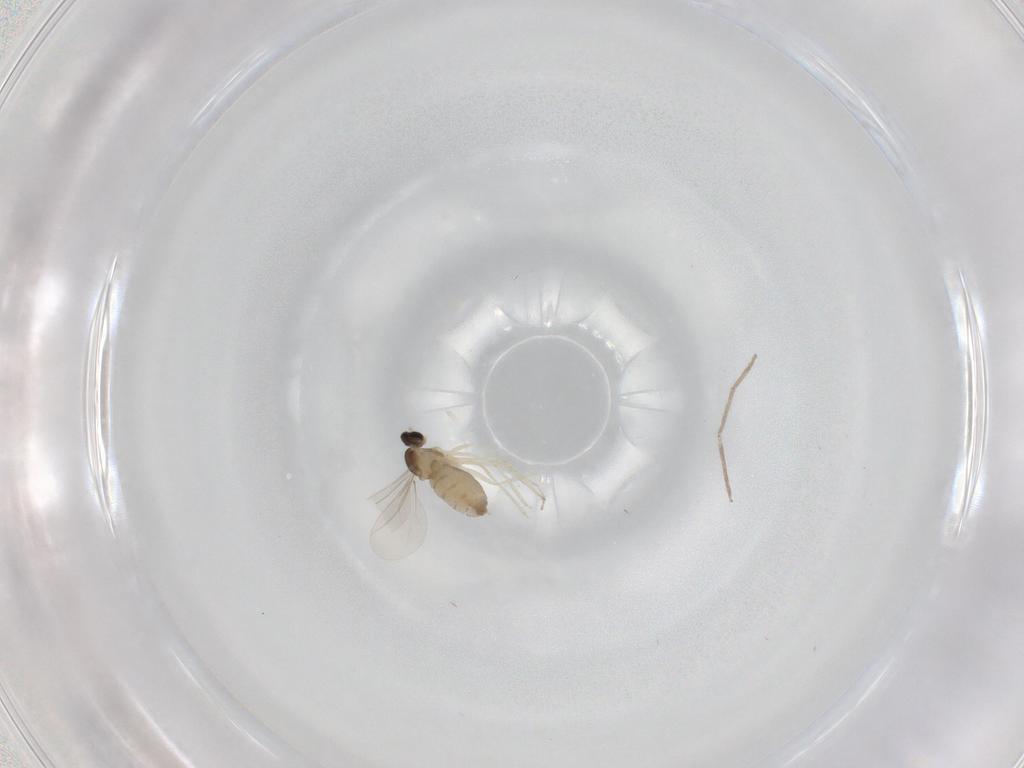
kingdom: Animalia
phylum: Arthropoda
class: Insecta
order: Diptera
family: Cecidomyiidae
